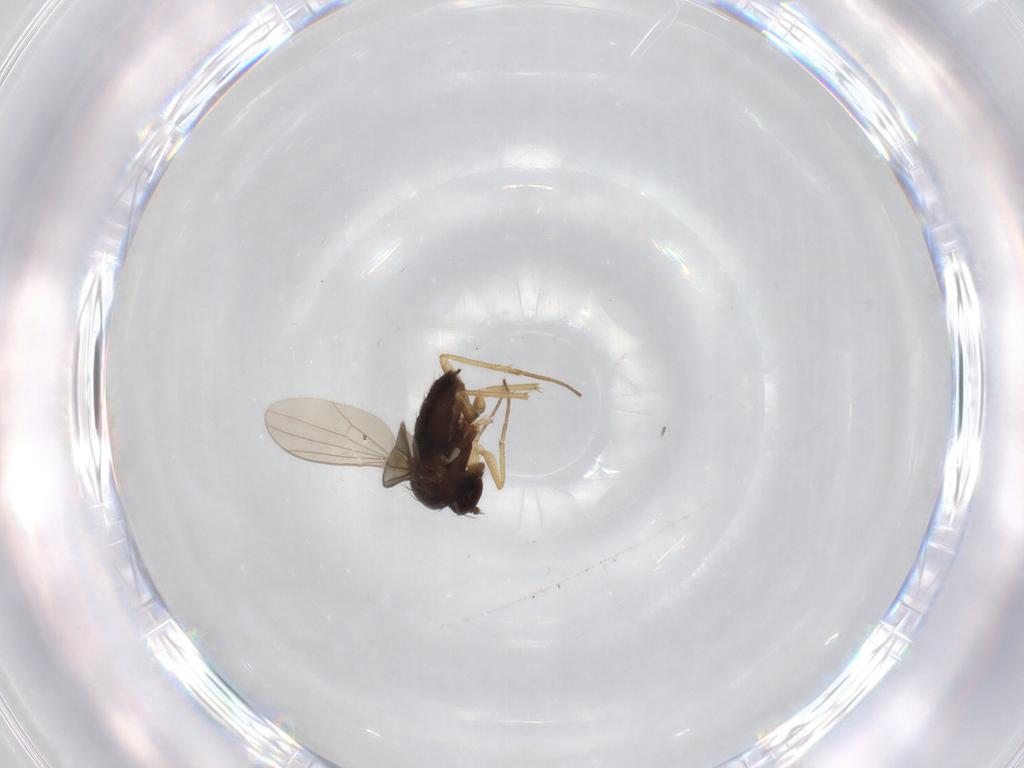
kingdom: Animalia
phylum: Arthropoda
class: Insecta
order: Diptera
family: Dolichopodidae
